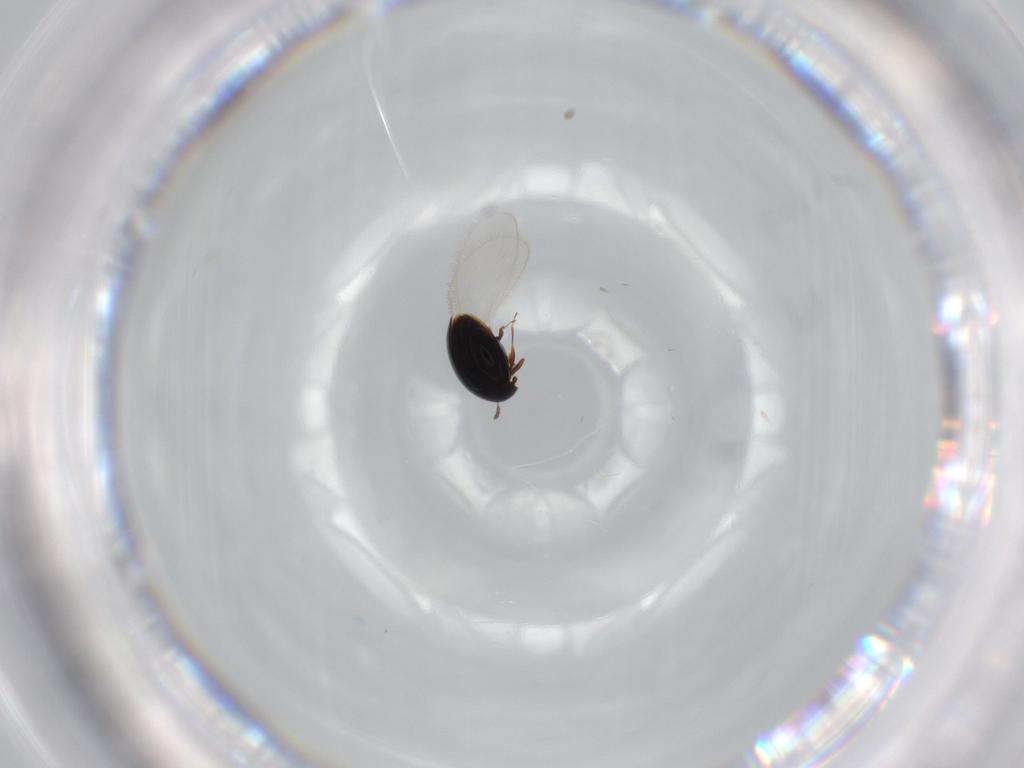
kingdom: Animalia
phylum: Arthropoda
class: Insecta
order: Coleoptera
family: Corylophidae
